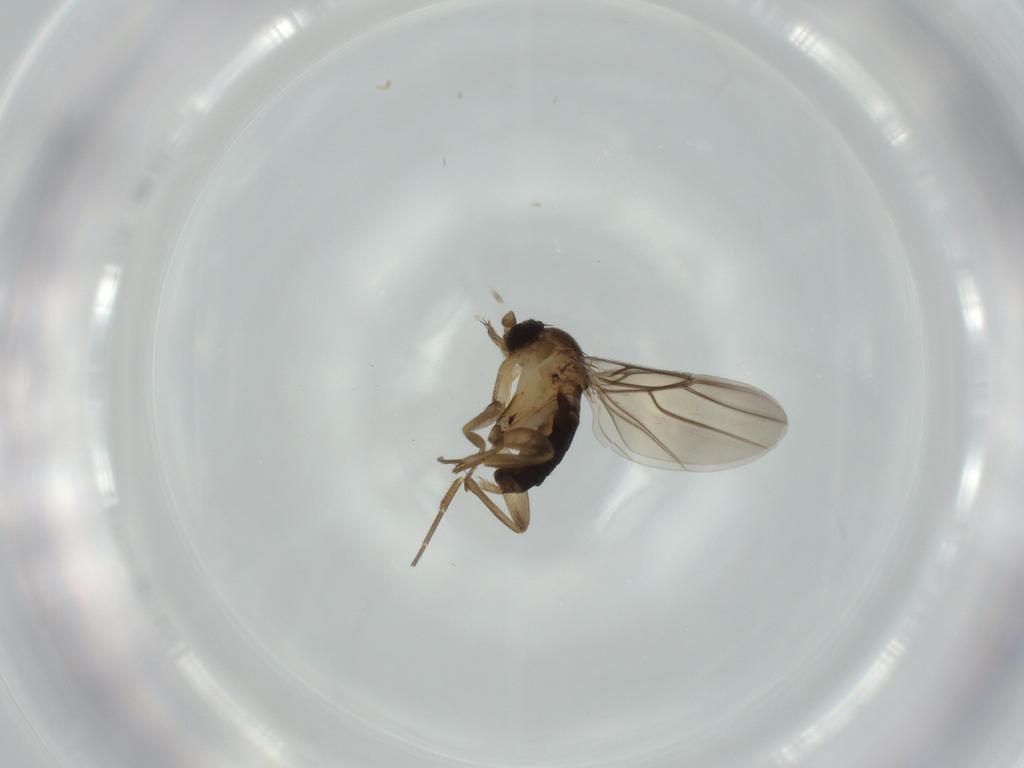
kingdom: Animalia
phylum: Arthropoda
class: Insecta
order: Diptera
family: Phoridae
